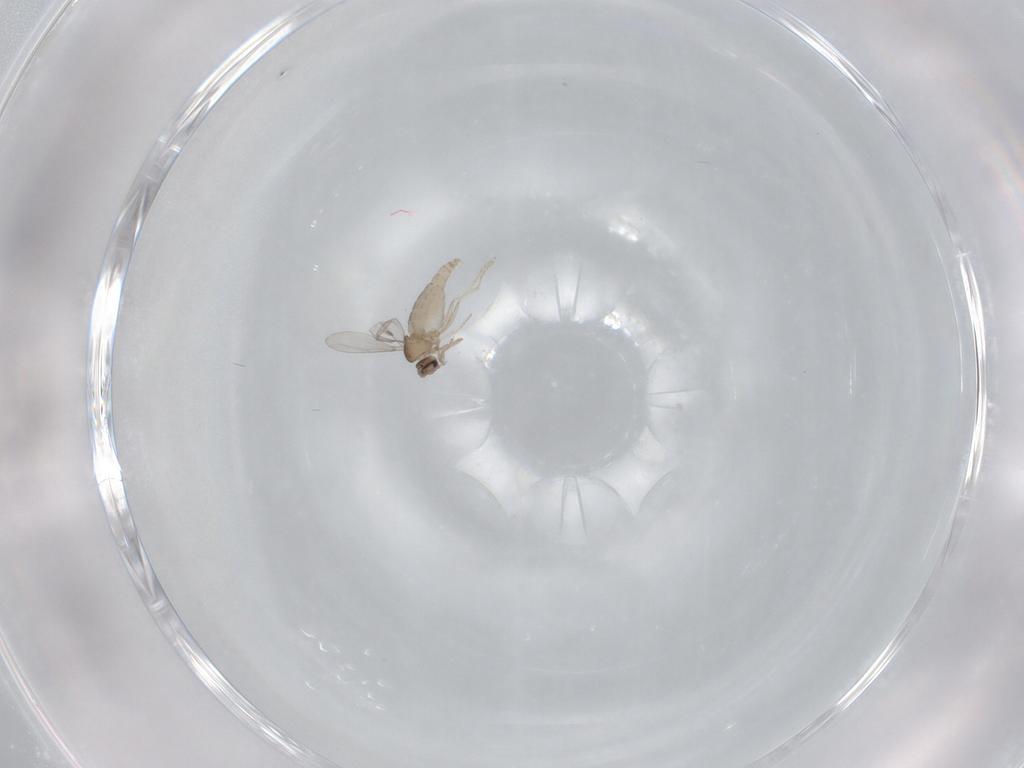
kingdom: Animalia
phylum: Arthropoda
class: Insecta
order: Diptera
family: Cecidomyiidae
